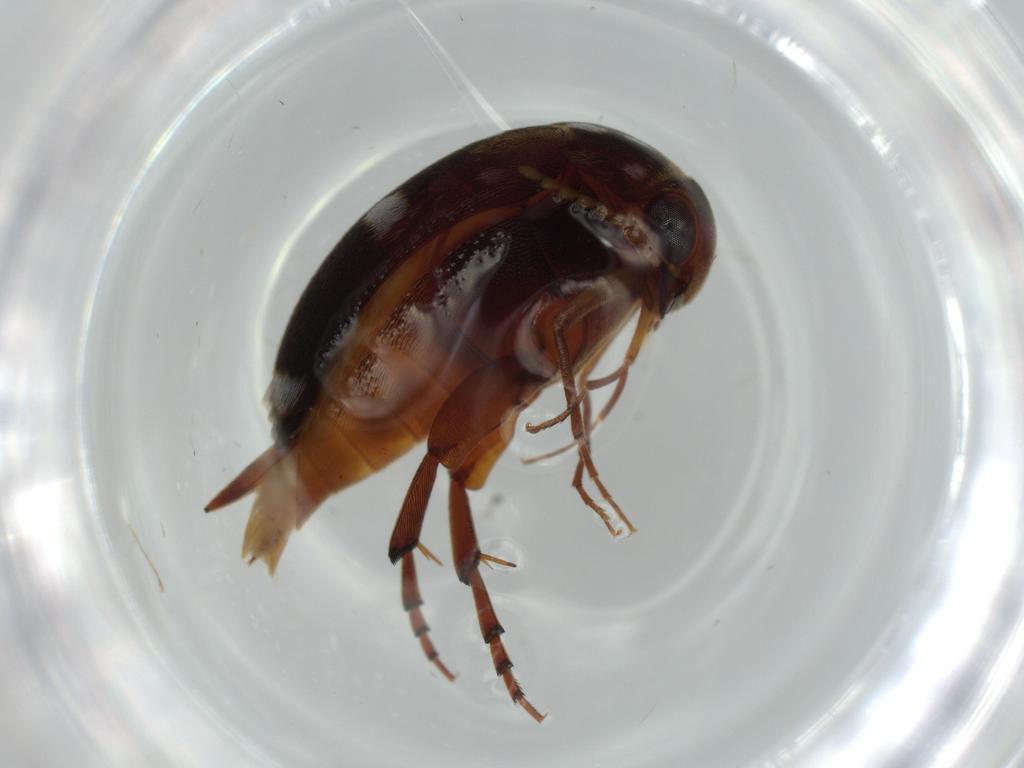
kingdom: Animalia
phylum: Arthropoda
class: Insecta
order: Coleoptera
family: Mordellidae
